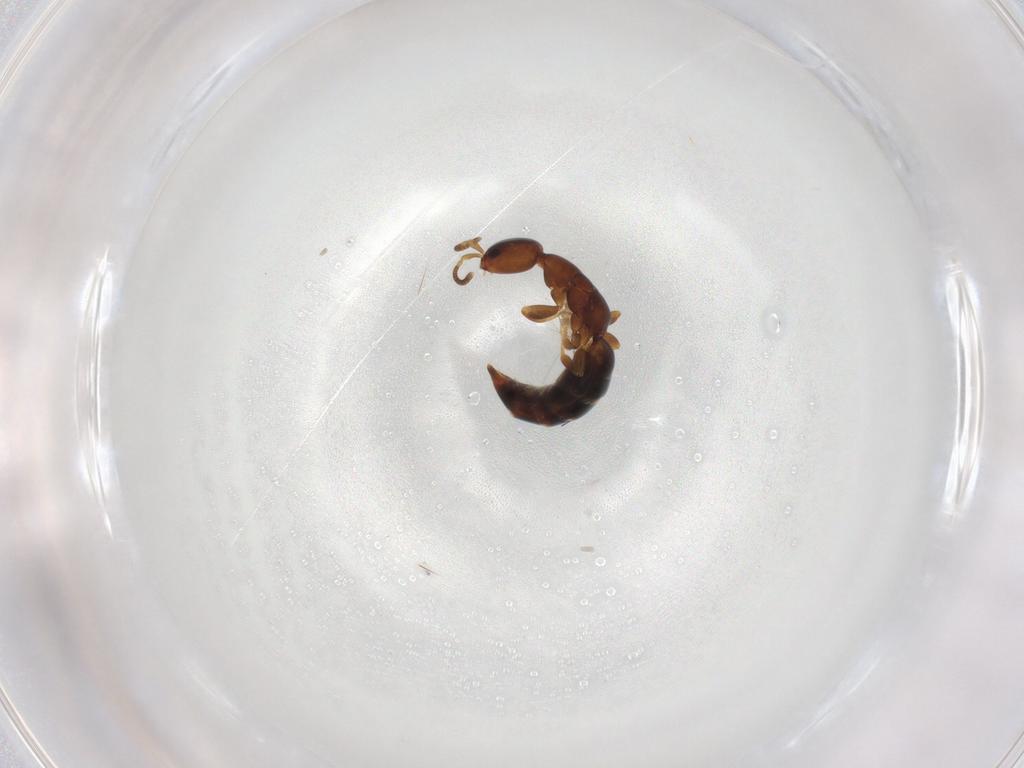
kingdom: Animalia
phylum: Arthropoda
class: Insecta
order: Hymenoptera
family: Bethylidae
